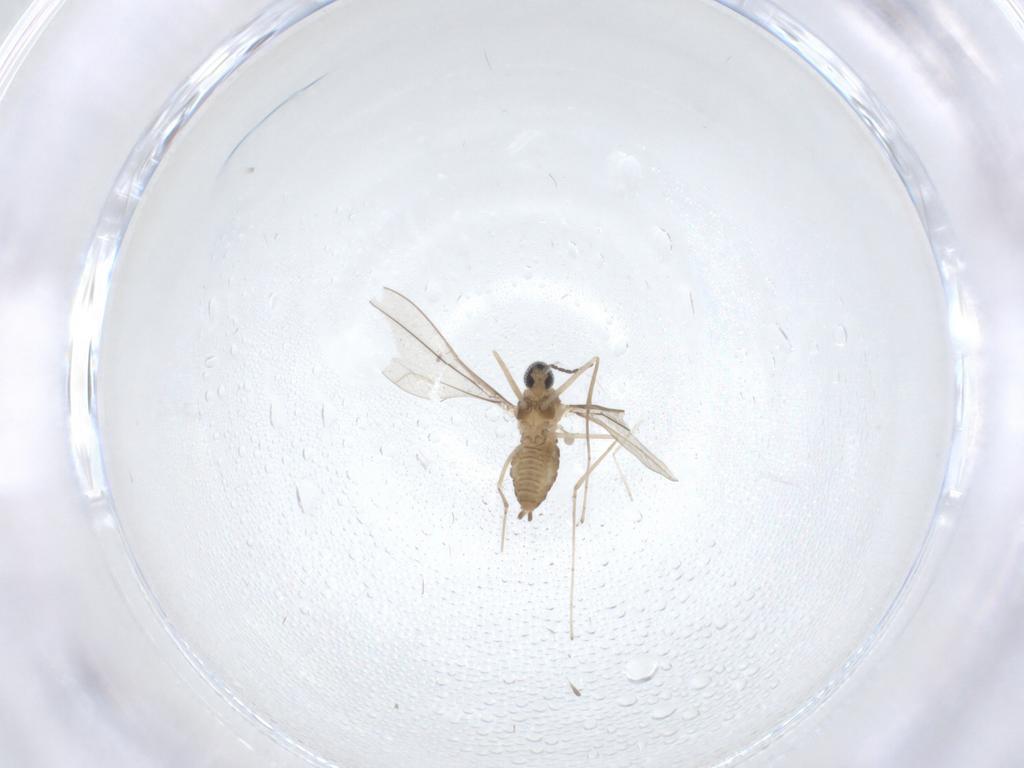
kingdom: Animalia
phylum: Arthropoda
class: Insecta
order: Diptera
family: Cecidomyiidae
